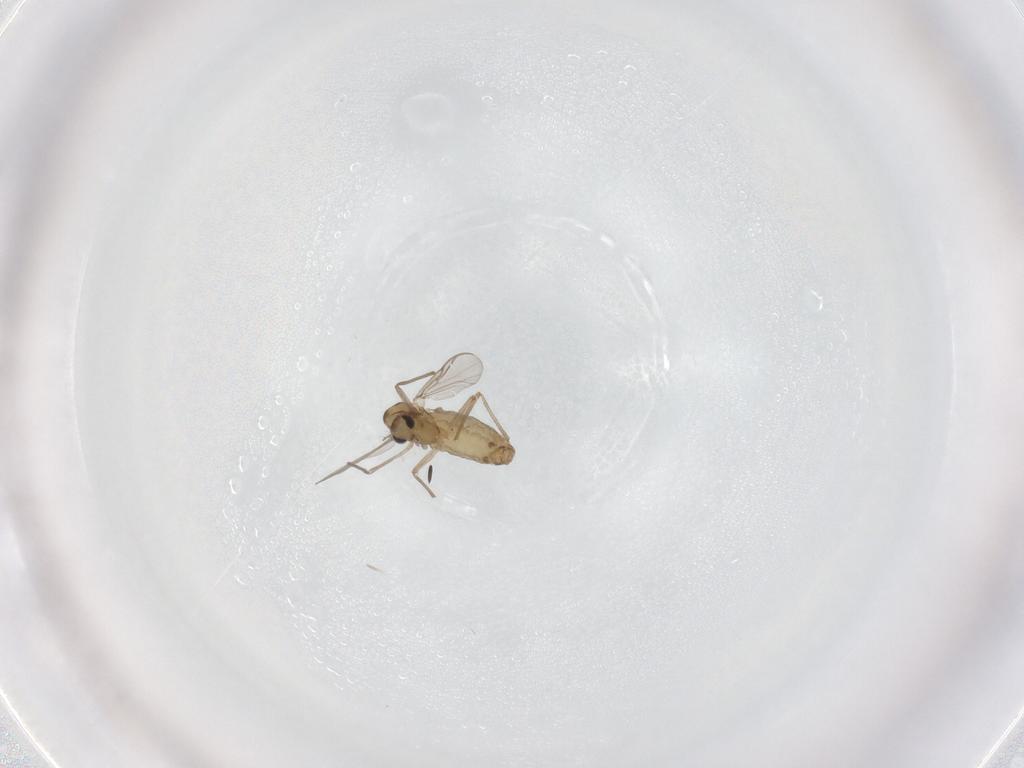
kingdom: Animalia
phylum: Arthropoda
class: Insecta
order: Diptera
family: Chironomidae
